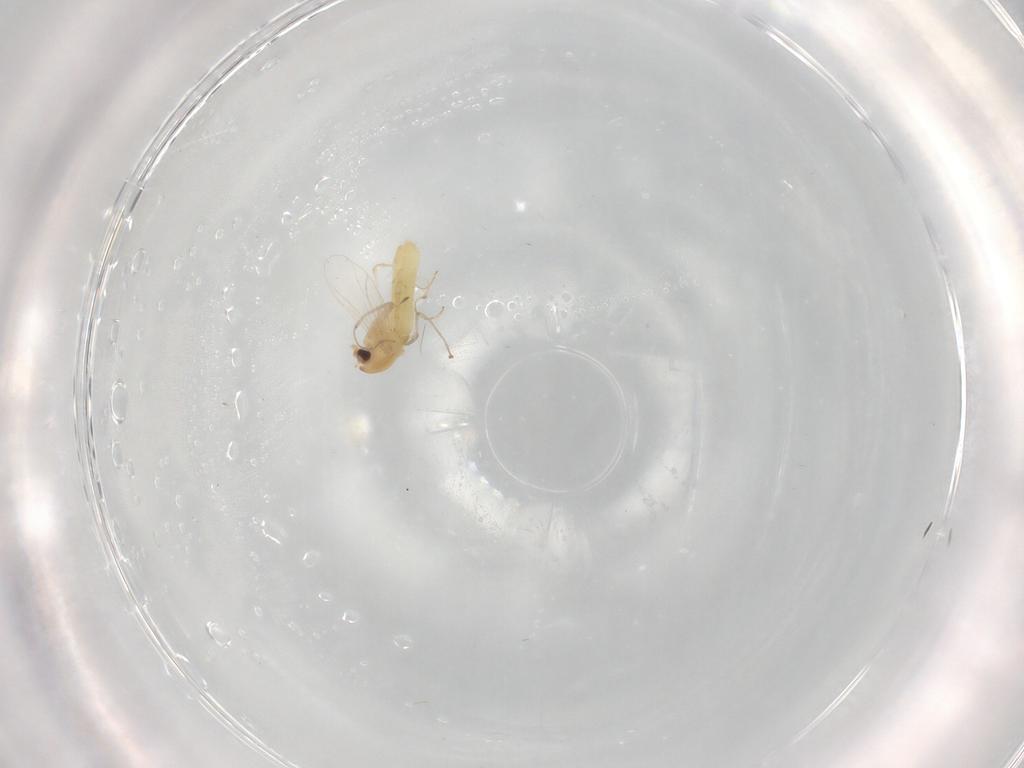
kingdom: Animalia
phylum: Arthropoda
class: Insecta
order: Diptera
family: Chironomidae
